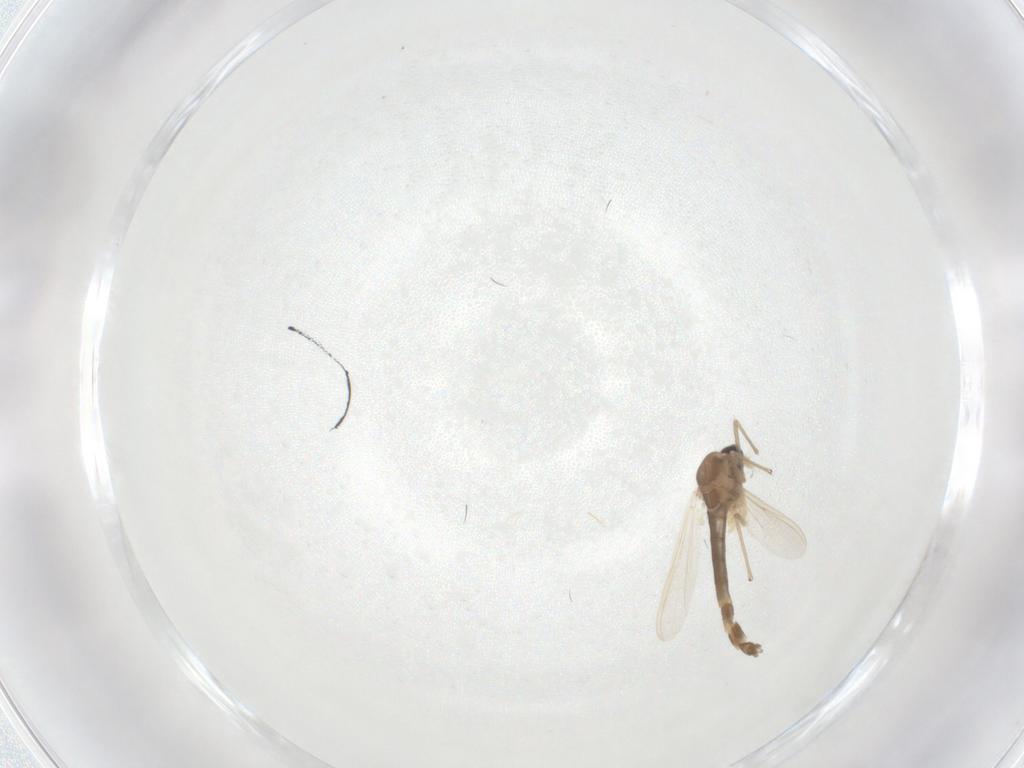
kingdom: Animalia
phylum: Arthropoda
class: Insecta
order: Diptera
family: Chironomidae
